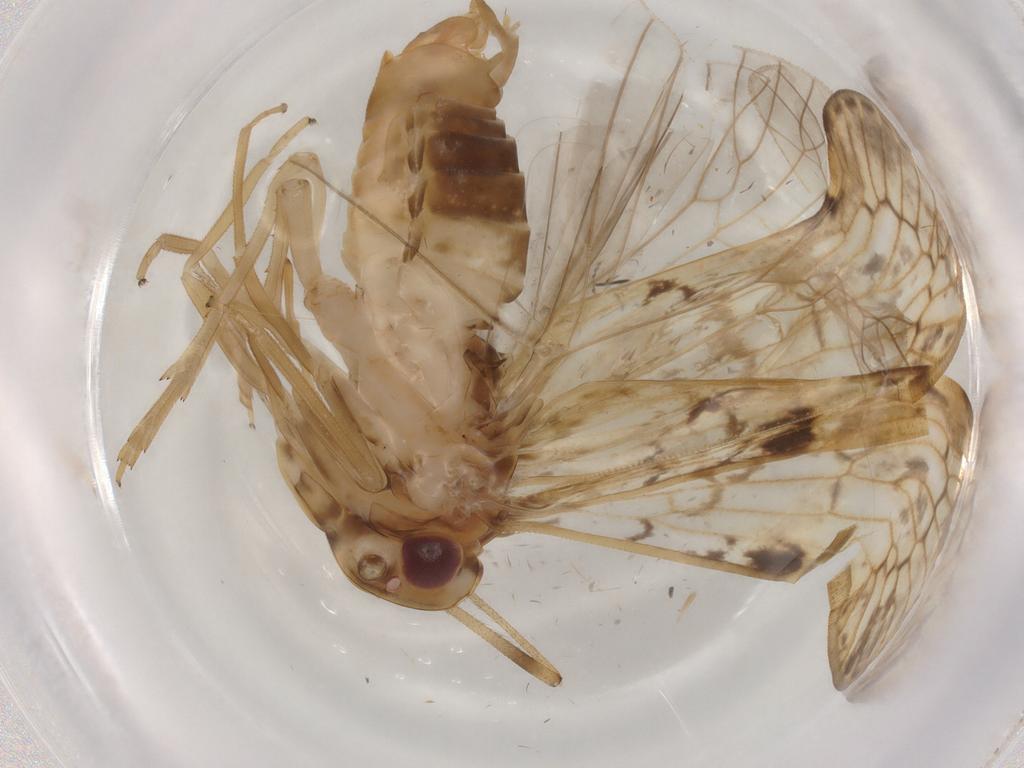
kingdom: Animalia
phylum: Arthropoda
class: Insecta
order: Hemiptera
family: Cixiidae
